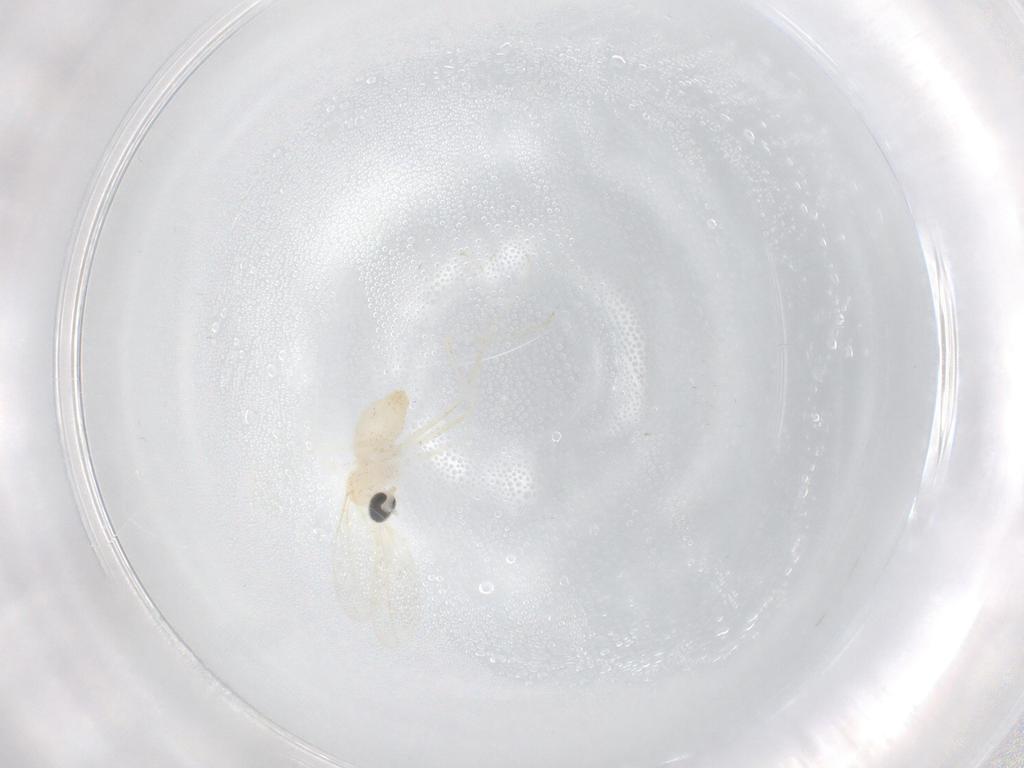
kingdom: Animalia
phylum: Arthropoda
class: Insecta
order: Diptera
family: Cecidomyiidae
